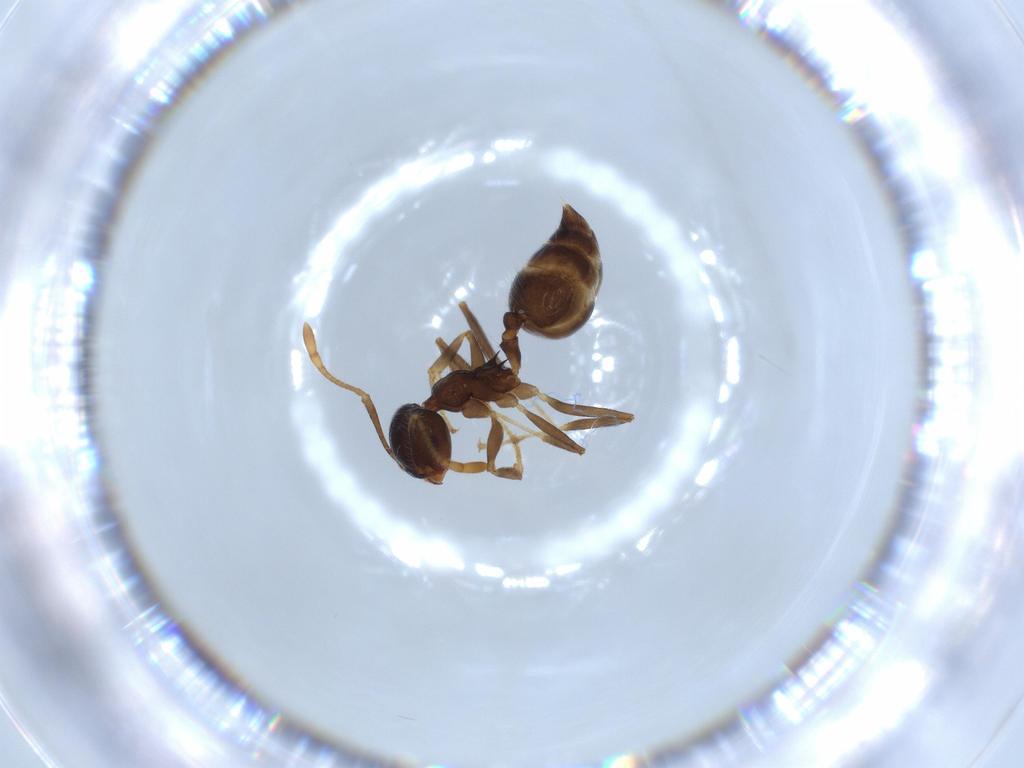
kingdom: Animalia
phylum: Arthropoda
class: Insecta
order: Hymenoptera
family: Formicidae
